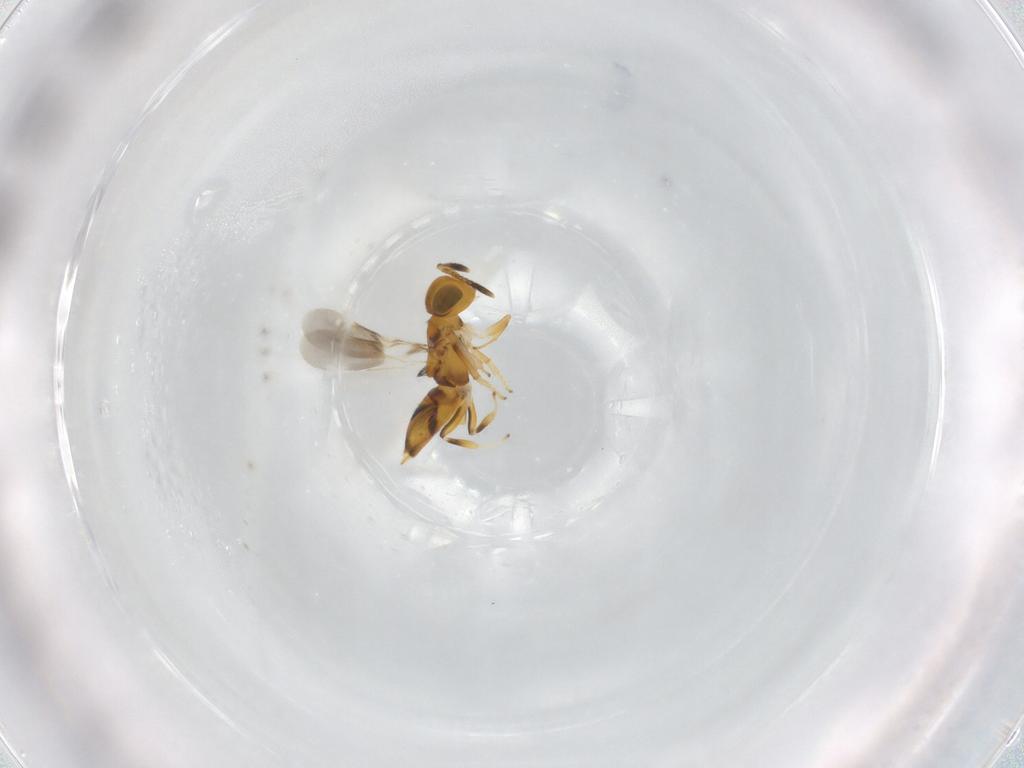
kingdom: Animalia
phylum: Arthropoda
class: Insecta
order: Hymenoptera
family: Encyrtidae
